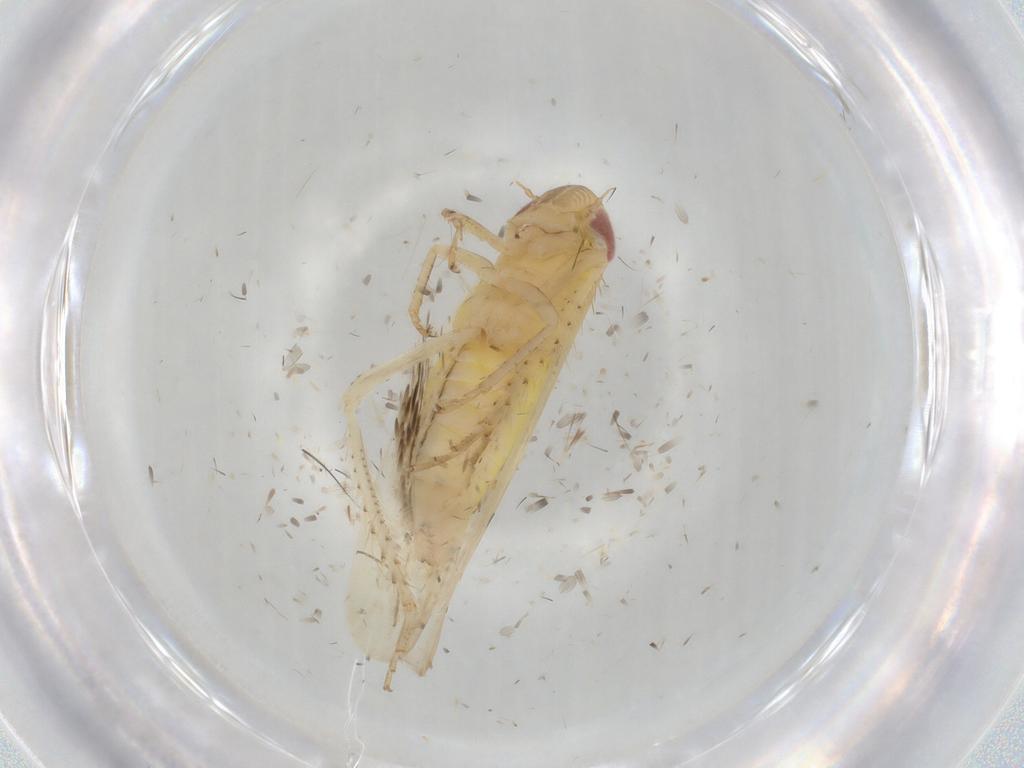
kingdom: Animalia
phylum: Arthropoda
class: Insecta
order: Hemiptera
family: Cicadellidae
